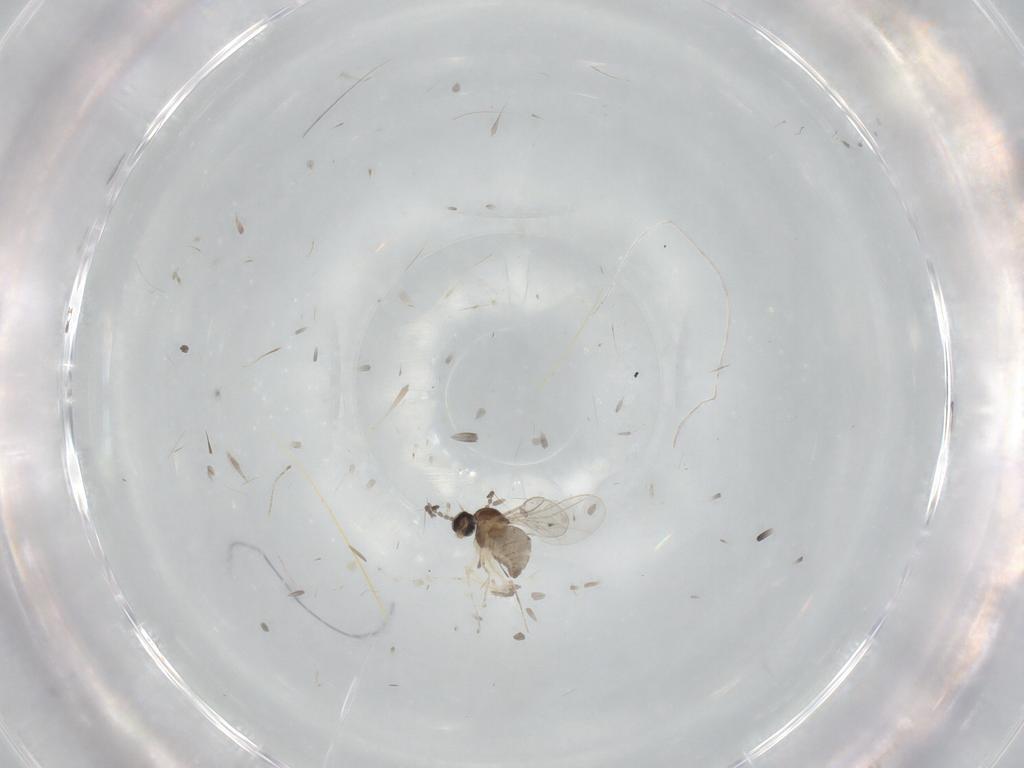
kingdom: Animalia
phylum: Arthropoda
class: Insecta
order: Diptera
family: Cecidomyiidae
